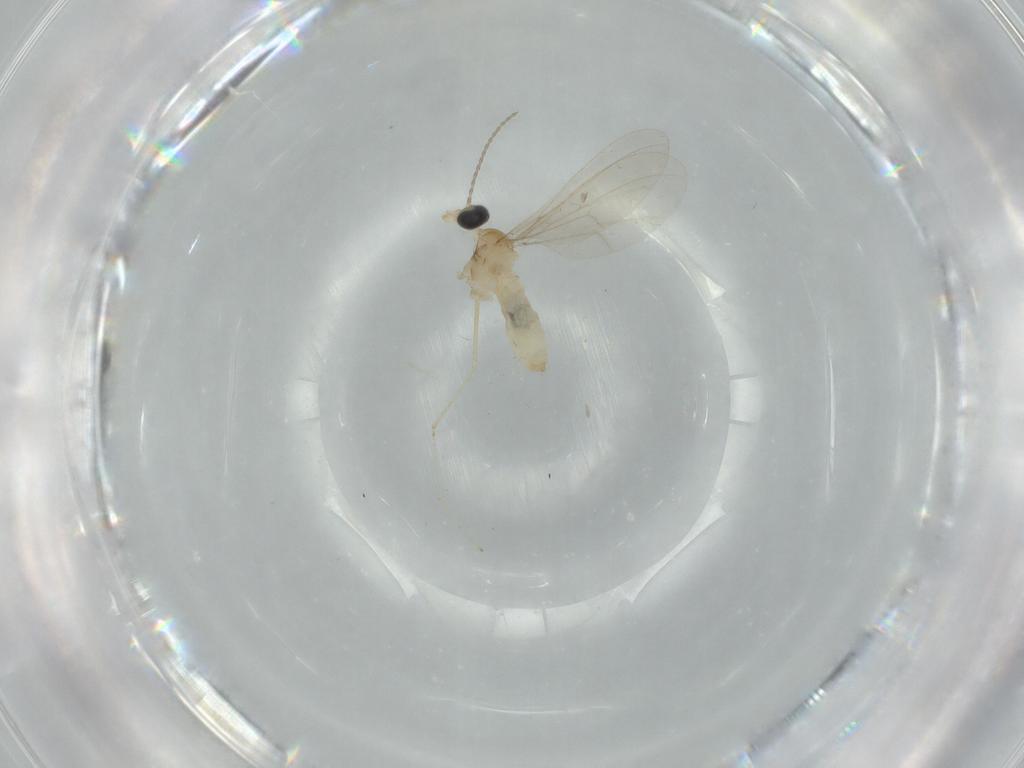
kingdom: Animalia
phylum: Arthropoda
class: Insecta
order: Diptera
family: Cecidomyiidae
